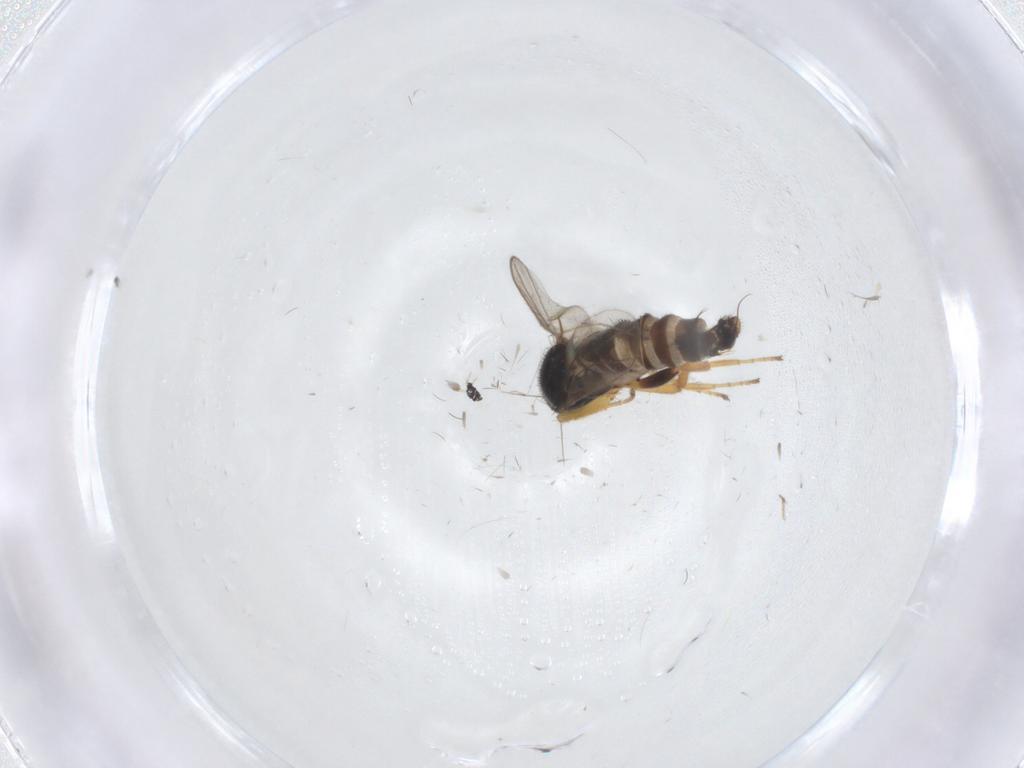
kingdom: Animalia
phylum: Arthropoda
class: Insecta
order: Diptera
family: Hybotidae
